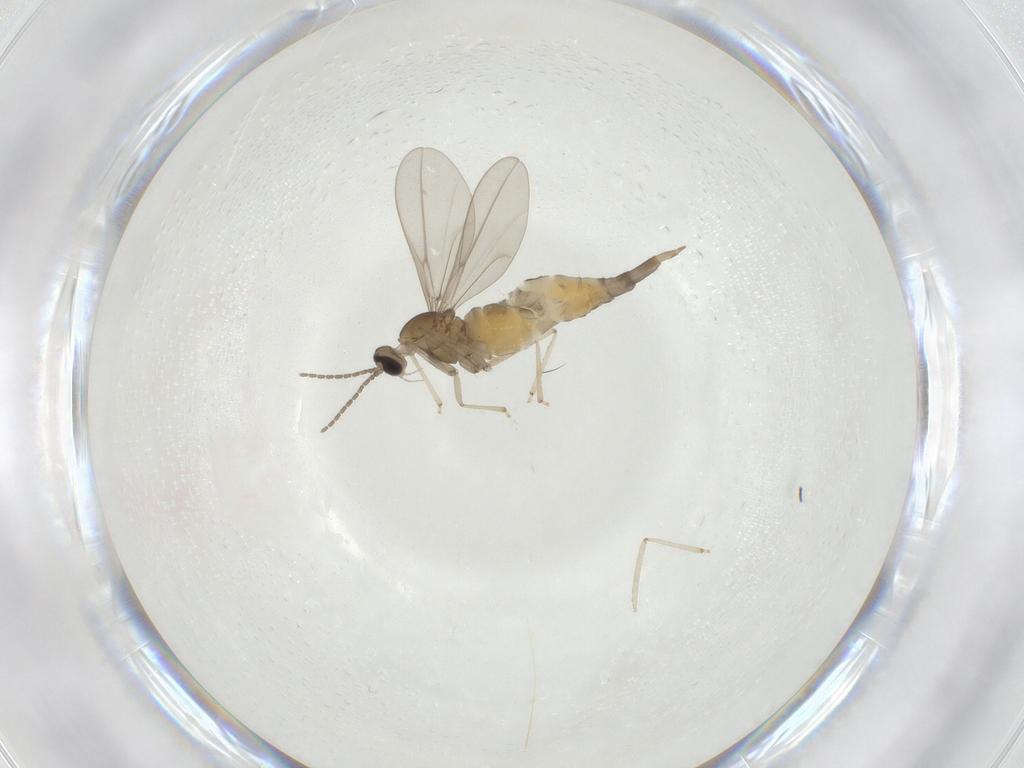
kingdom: Animalia
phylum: Arthropoda
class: Insecta
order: Diptera
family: Cecidomyiidae
